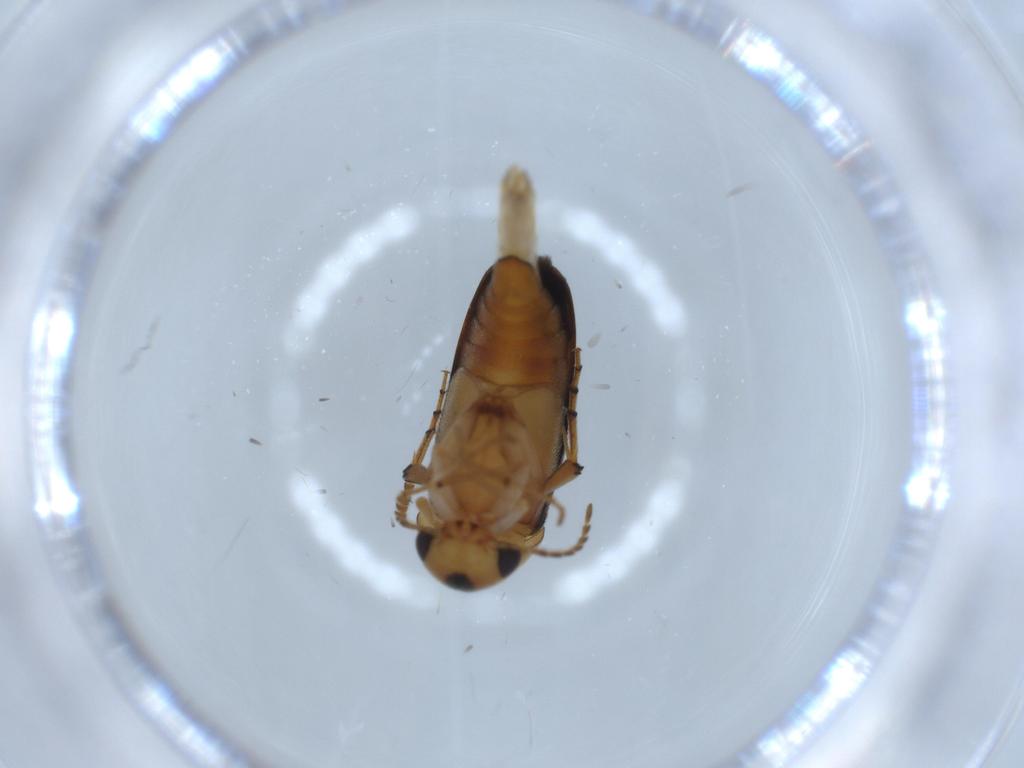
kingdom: Animalia
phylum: Arthropoda
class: Insecta
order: Coleoptera
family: Mordellidae
